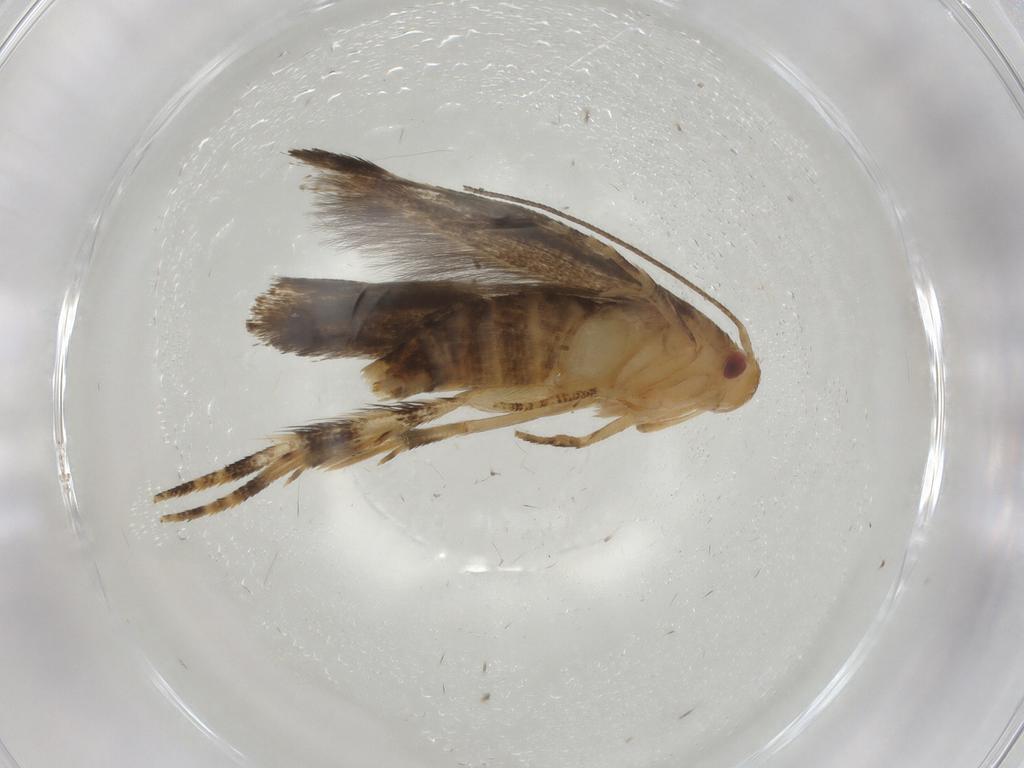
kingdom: Animalia
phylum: Arthropoda
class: Insecta
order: Lepidoptera
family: Momphidae
